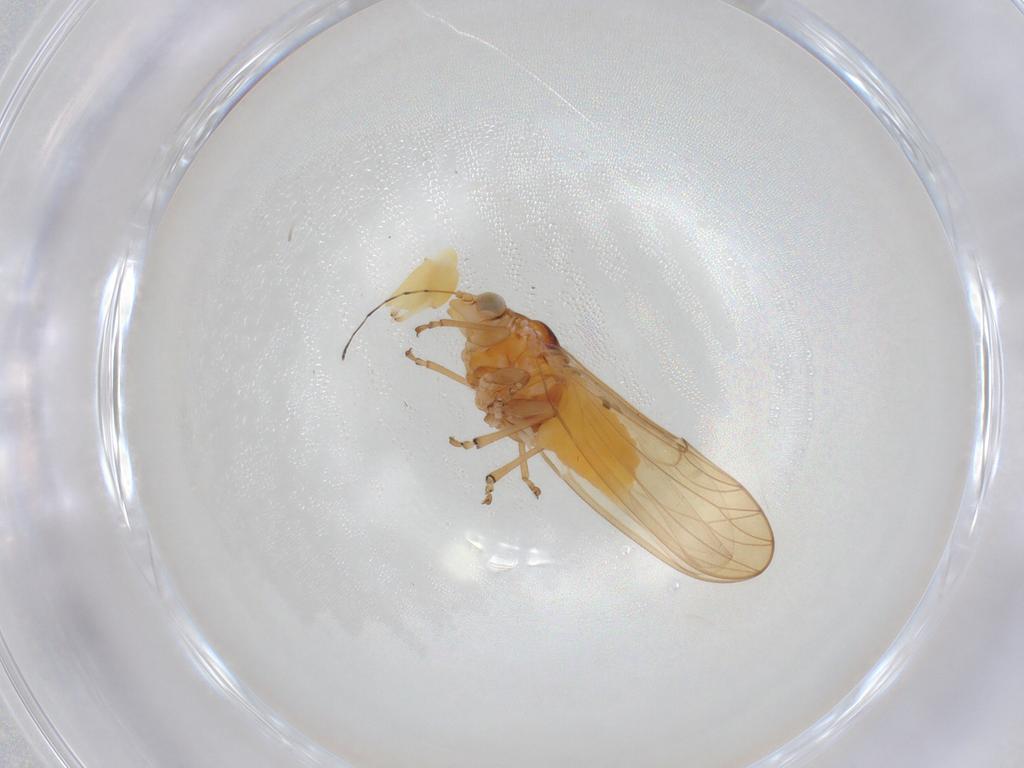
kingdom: Animalia
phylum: Arthropoda
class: Insecta
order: Hemiptera
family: Psylloidea_incertae_sedis
